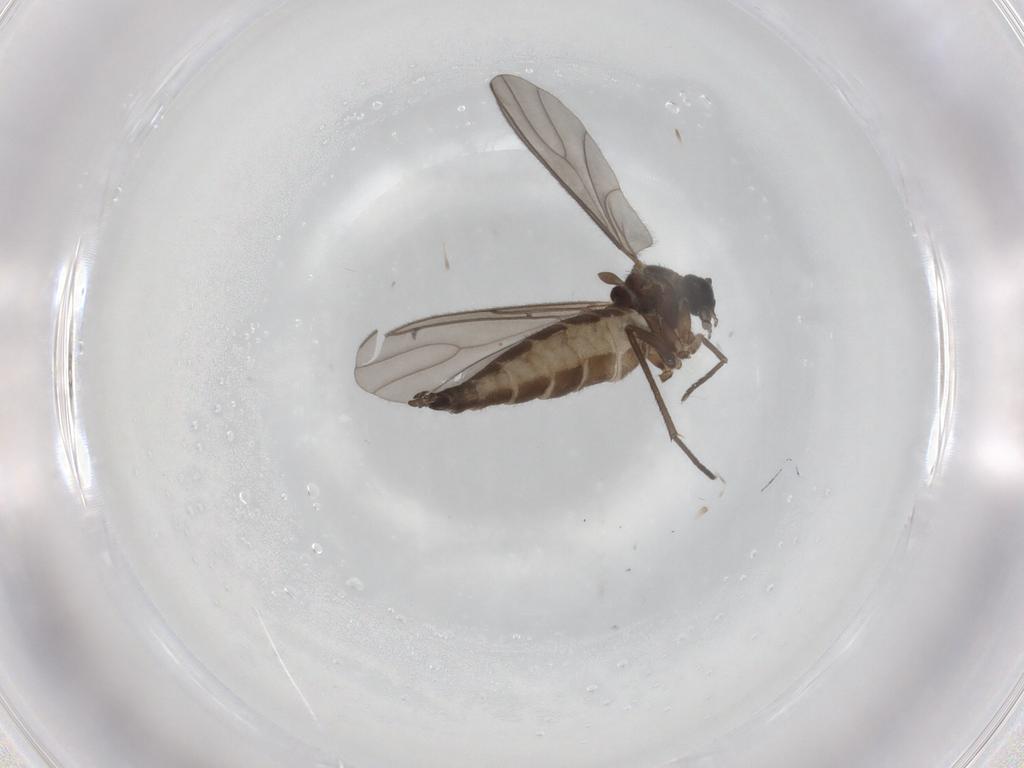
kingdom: Animalia
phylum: Arthropoda
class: Insecta
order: Diptera
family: Sciaridae
